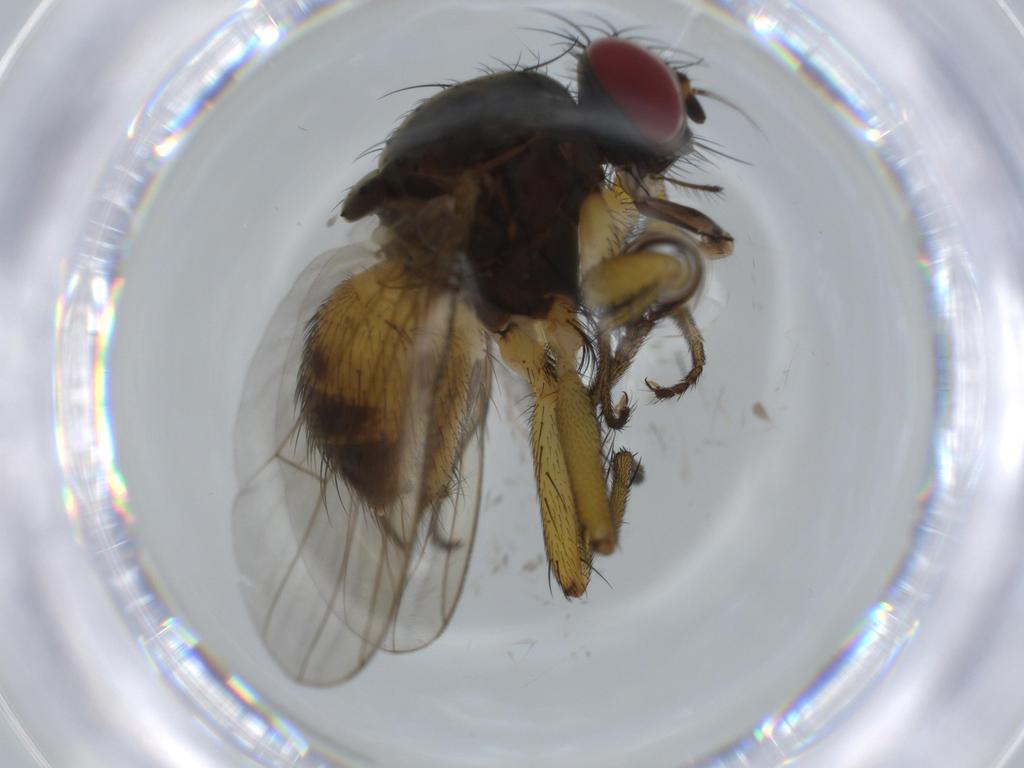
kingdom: Animalia
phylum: Arthropoda
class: Insecta
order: Diptera
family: Muscidae
